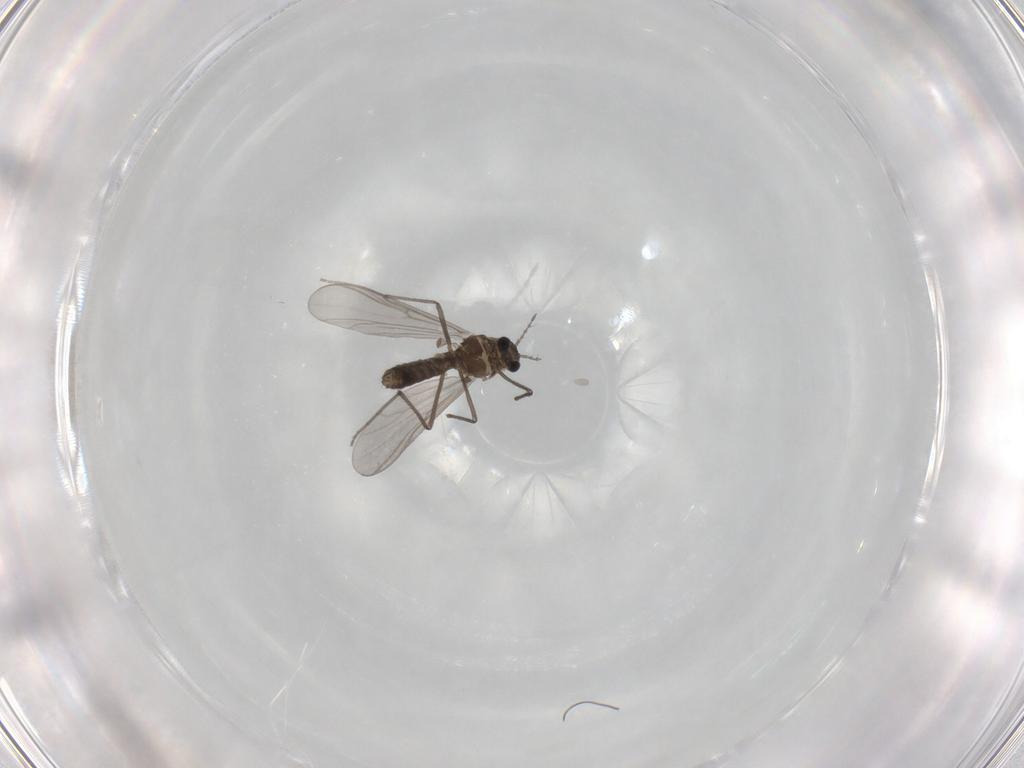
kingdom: Animalia
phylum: Arthropoda
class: Insecta
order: Diptera
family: Chironomidae
